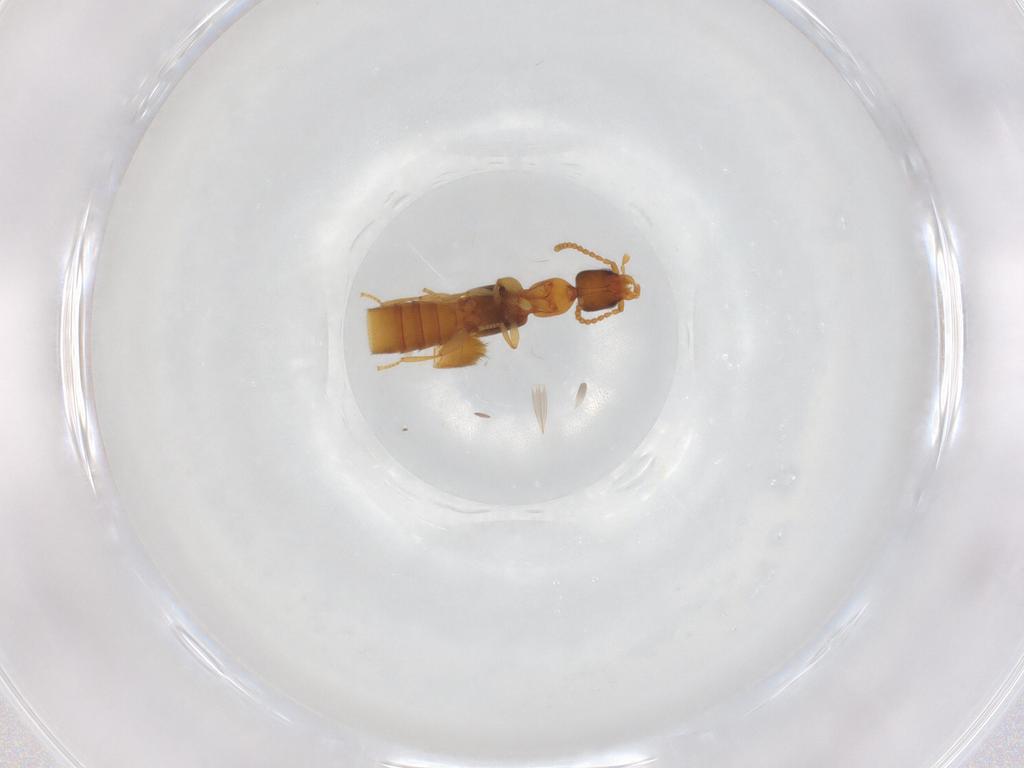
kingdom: Animalia
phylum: Arthropoda
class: Insecta
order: Coleoptera
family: Staphylinidae
